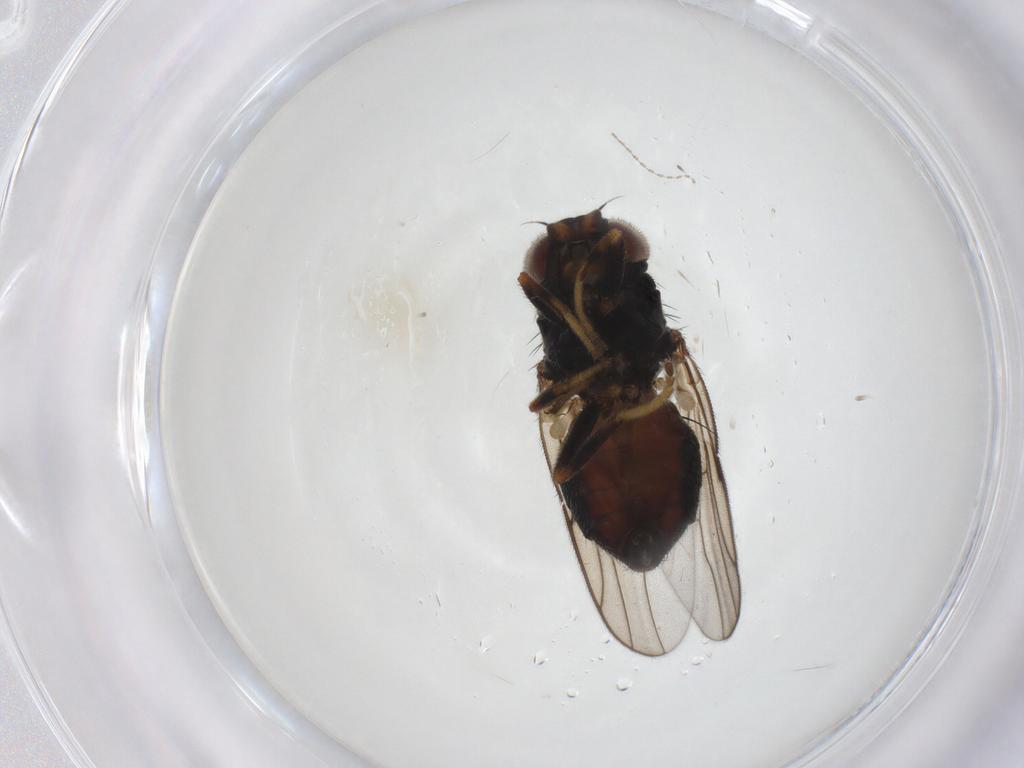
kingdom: Animalia
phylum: Arthropoda
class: Insecta
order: Diptera
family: Chloropidae
